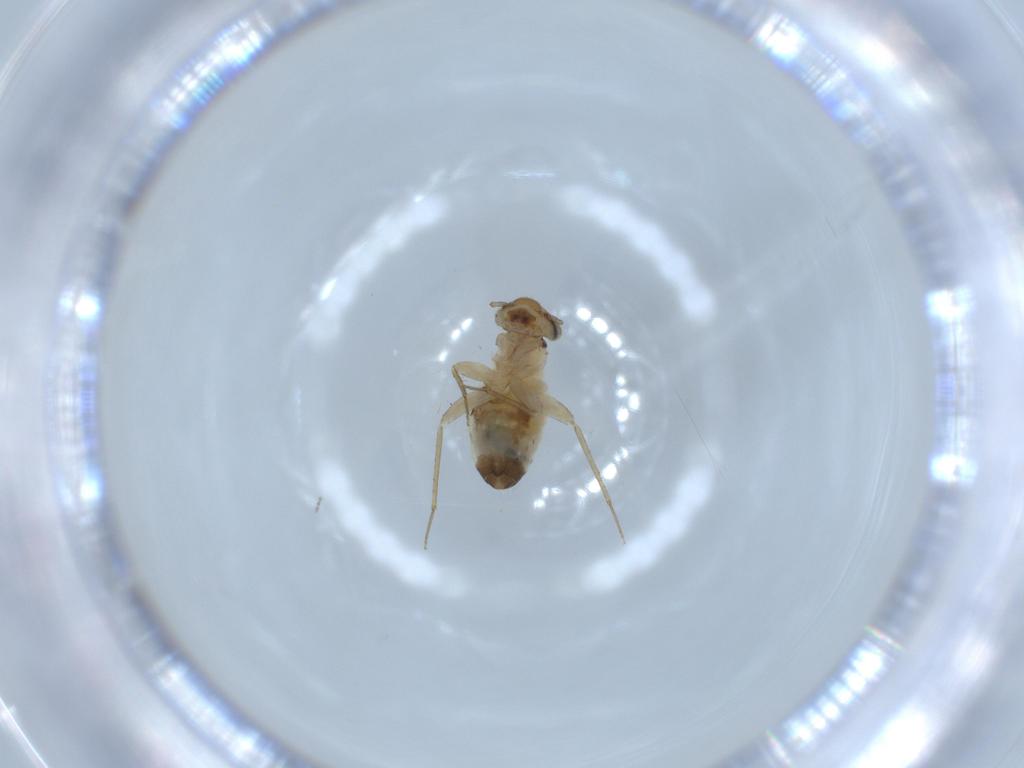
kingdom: Animalia
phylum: Arthropoda
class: Insecta
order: Psocodea
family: Lepidopsocidae
